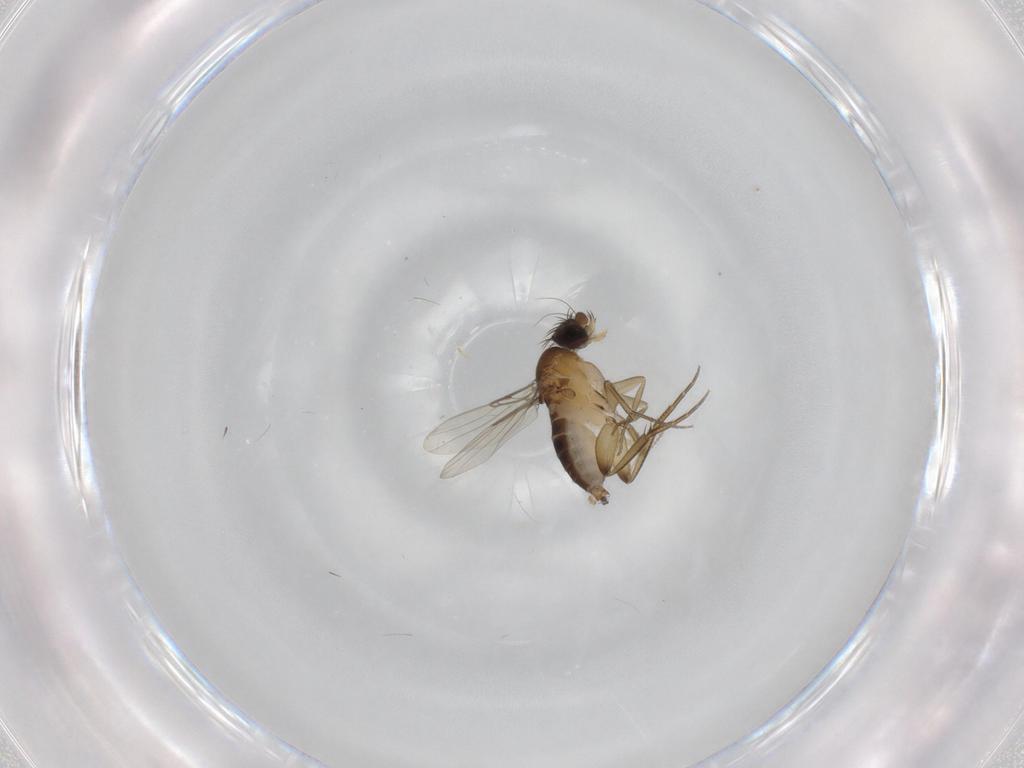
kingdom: Animalia
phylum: Arthropoda
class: Insecta
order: Diptera
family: Phoridae
